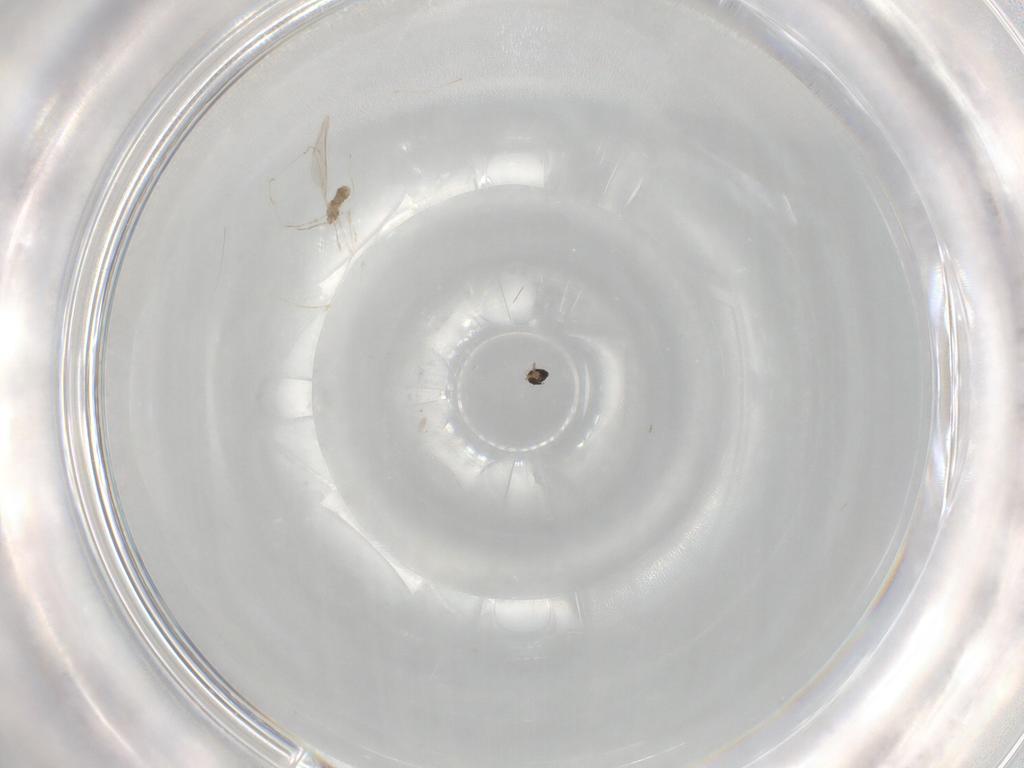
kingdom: Animalia
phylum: Arthropoda
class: Insecta
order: Diptera
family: Cecidomyiidae
